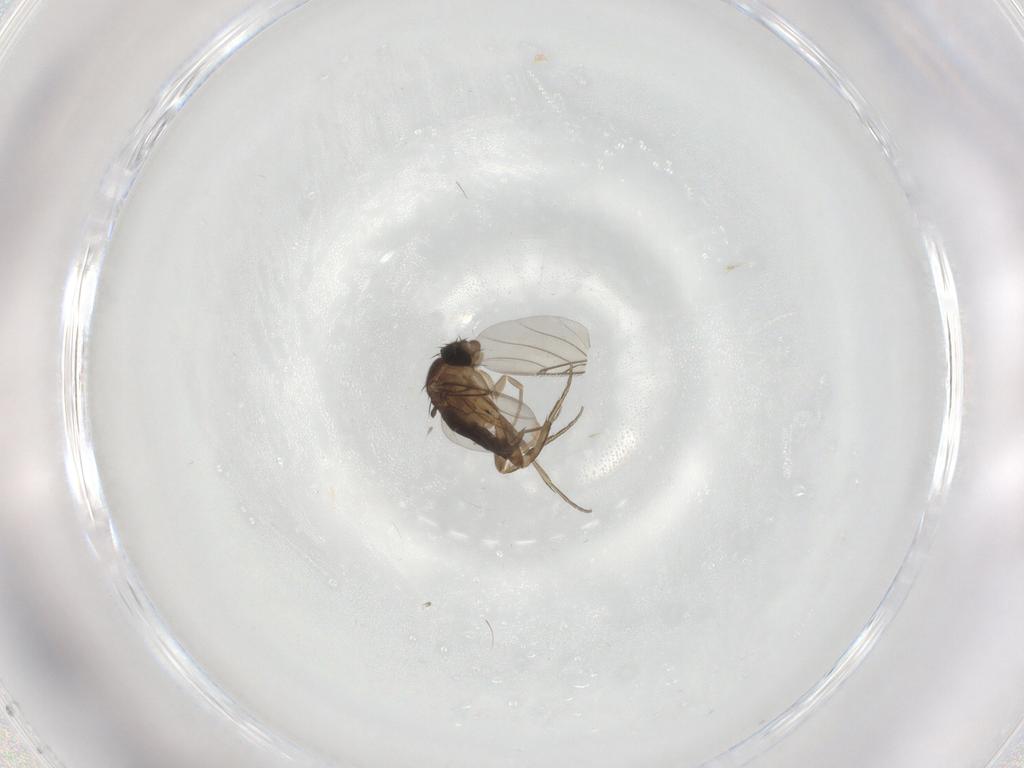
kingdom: Animalia
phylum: Arthropoda
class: Insecta
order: Diptera
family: Phoridae
